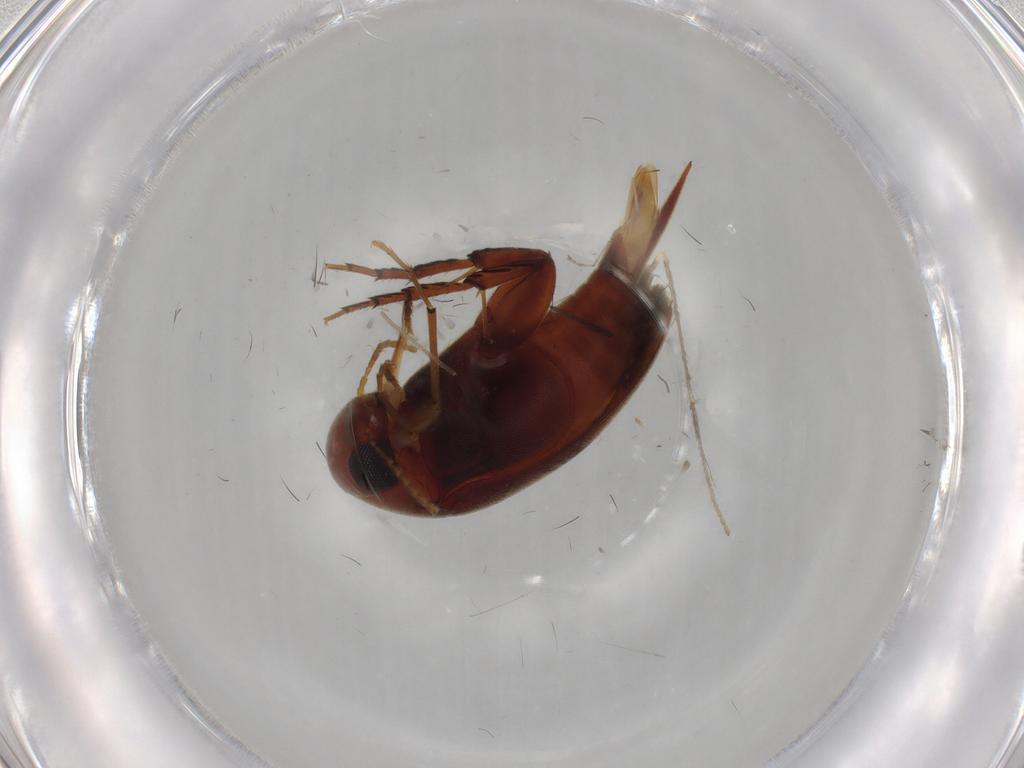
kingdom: Animalia
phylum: Arthropoda
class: Insecta
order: Coleoptera
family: Mordellidae
